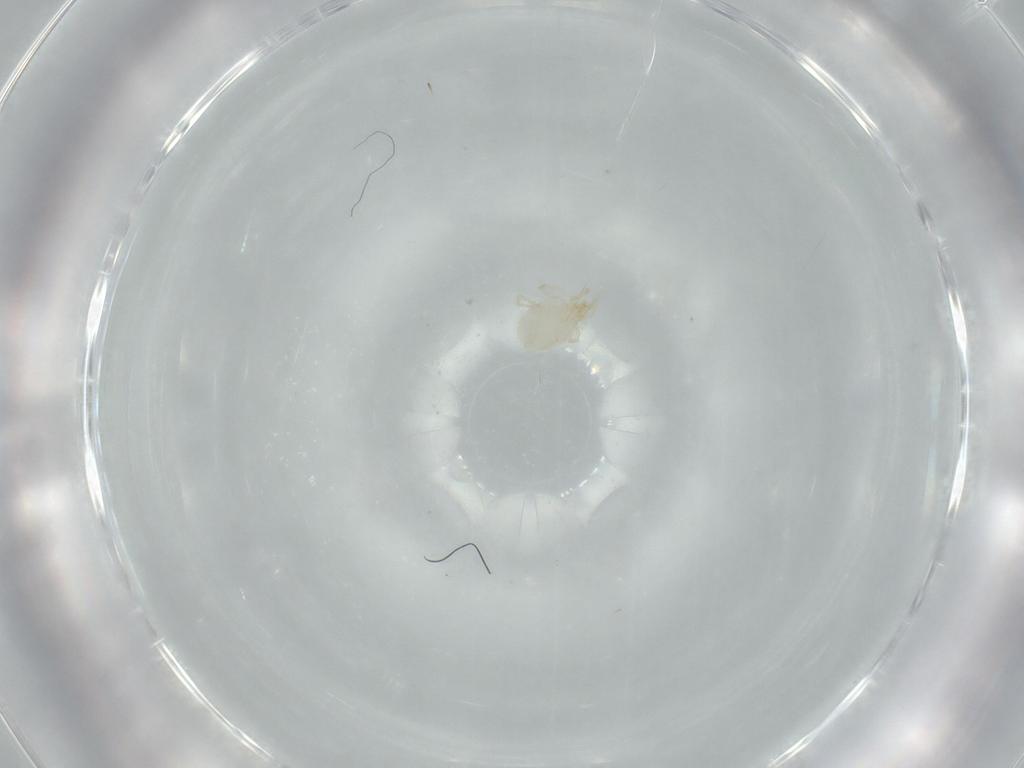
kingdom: Animalia
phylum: Arthropoda
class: Arachnida
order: Trombidiformes
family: Erythraeidae
